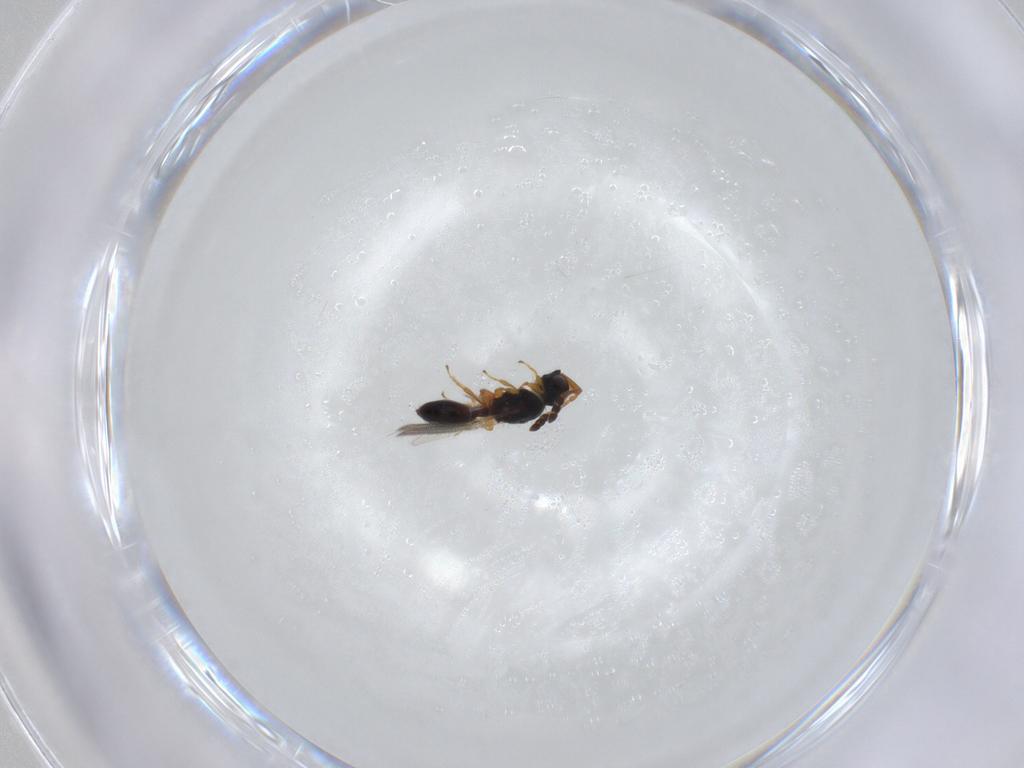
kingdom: Animalia
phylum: Arthropoda
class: Insecta
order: Hymenoptera
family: Diapriidae
